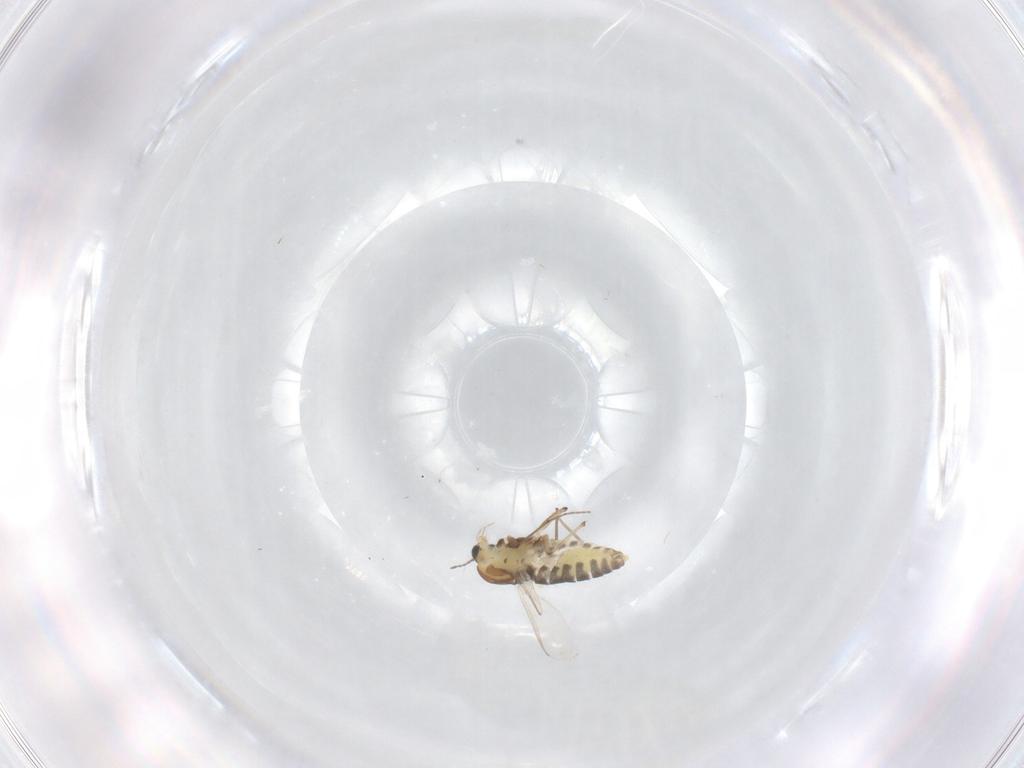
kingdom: Animalia
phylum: Arthropoda
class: Insecta
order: Diptera
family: Chironomidae
